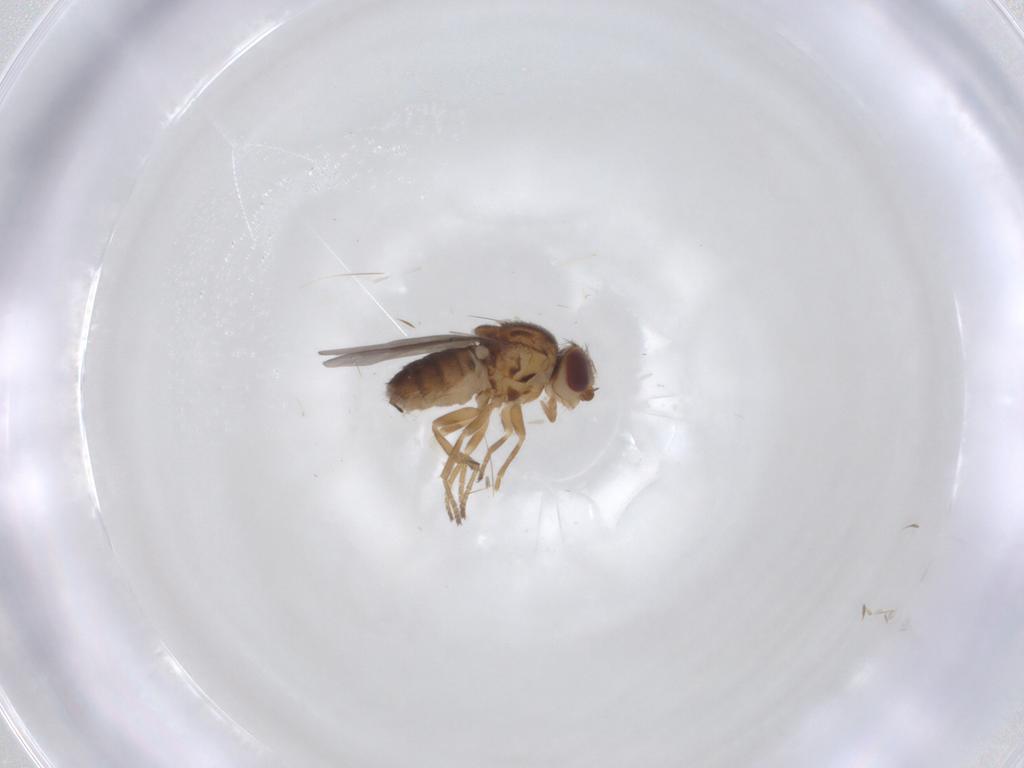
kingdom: Animalia
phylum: Arthropoda
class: Insecta
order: Diptera
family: Chloropidae
